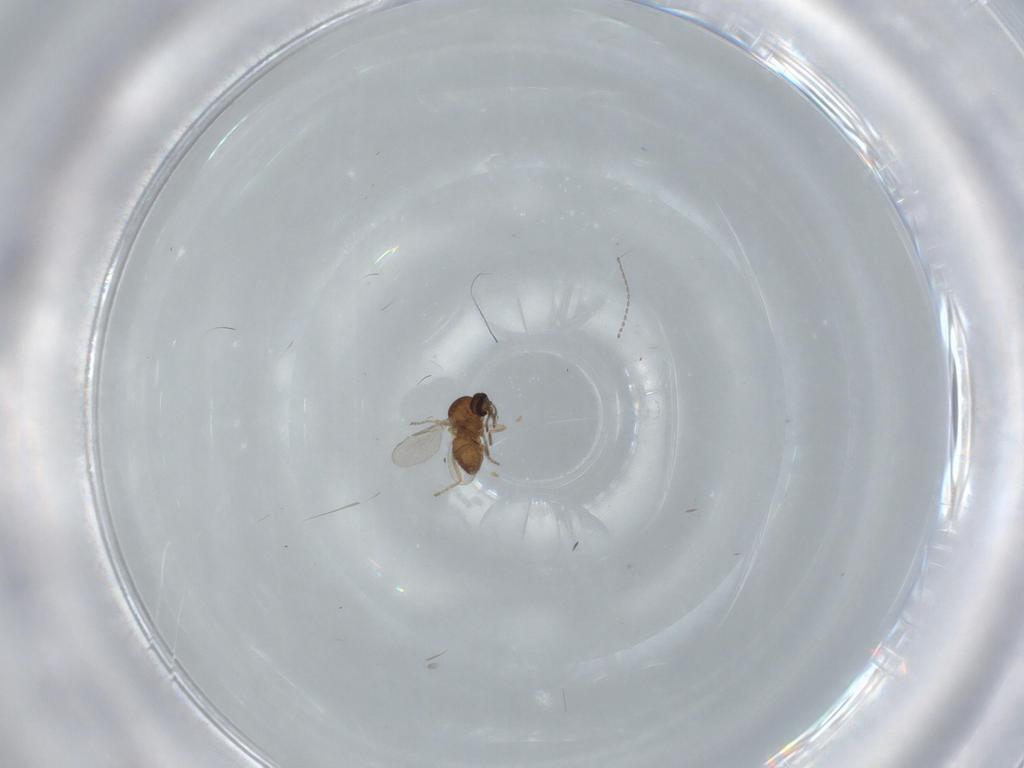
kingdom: Animalia
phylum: Arthropoda
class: Insecta
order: Diptera
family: Ceratopogonidae
